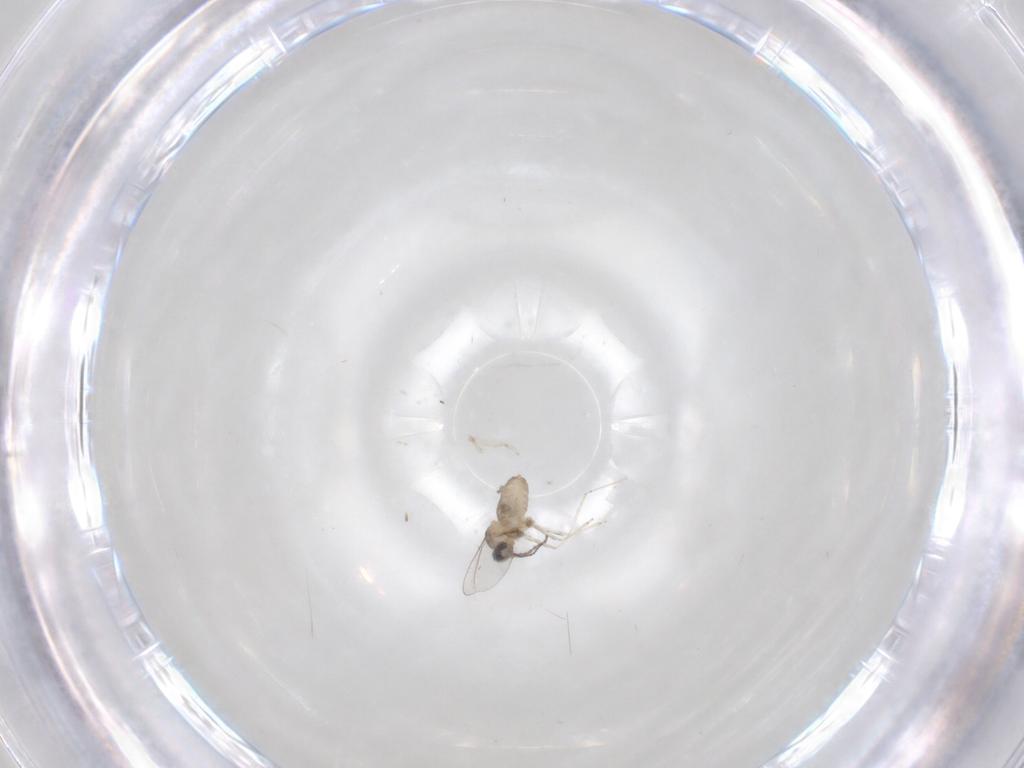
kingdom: Animalia
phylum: Arthropoda
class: Insecta
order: Diptera
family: Cecidomyiidae
